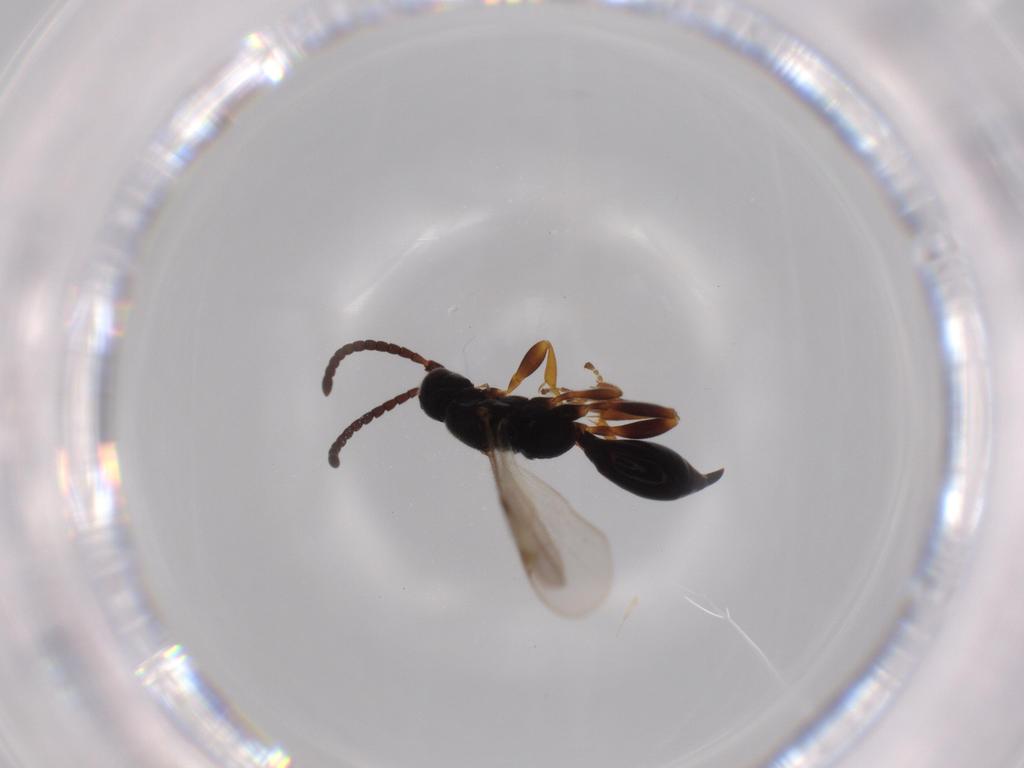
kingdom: Animalia
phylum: Arthropoda
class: Insecta
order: Hymenoptera
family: Proctotrupidae
